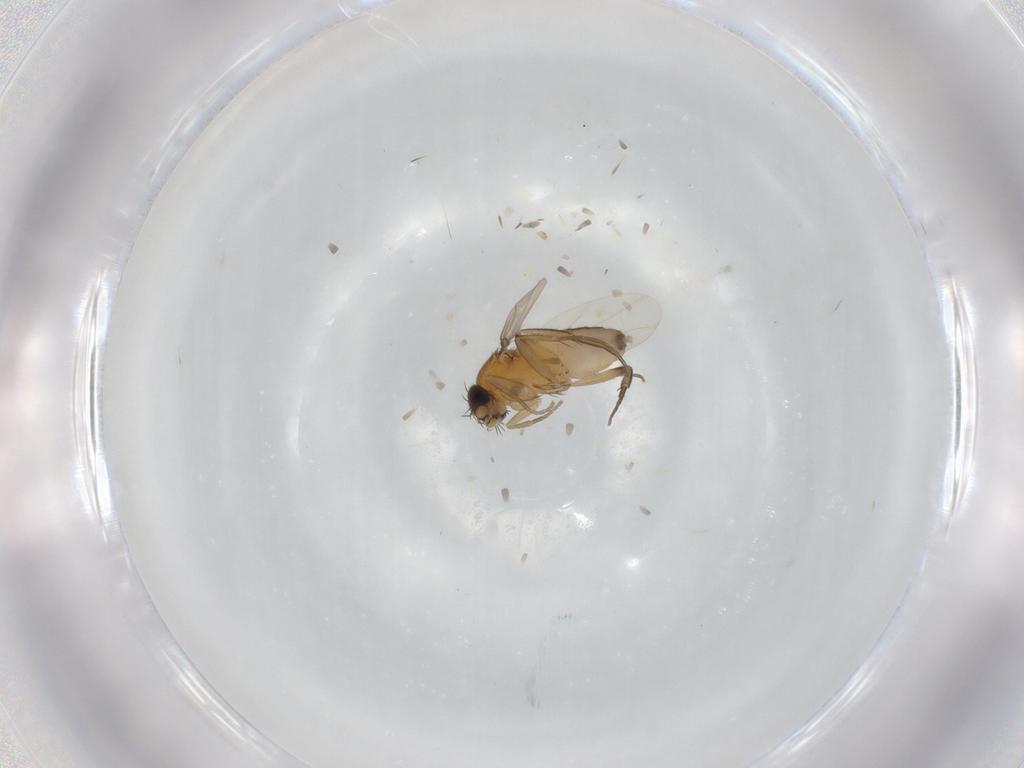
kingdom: Animalia
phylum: Arthropoda
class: Insecta
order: Diptera
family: Phoridae
